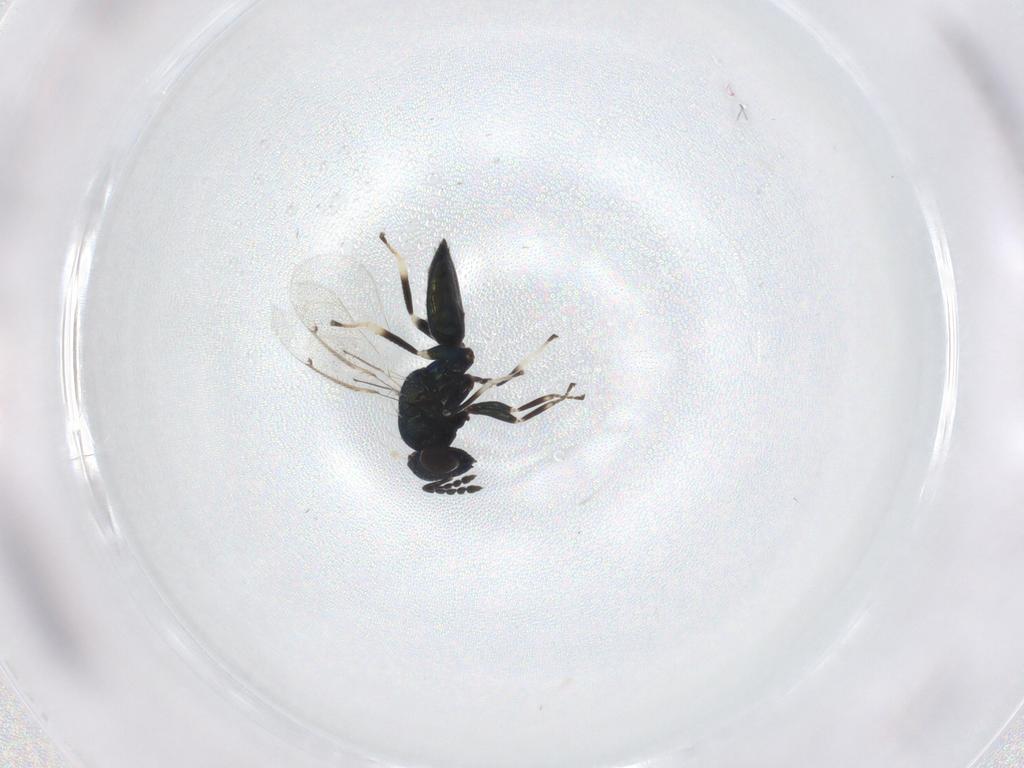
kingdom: Animalia
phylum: Arthropoda
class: Insecta
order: Hymenoptera
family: Eulophidae
